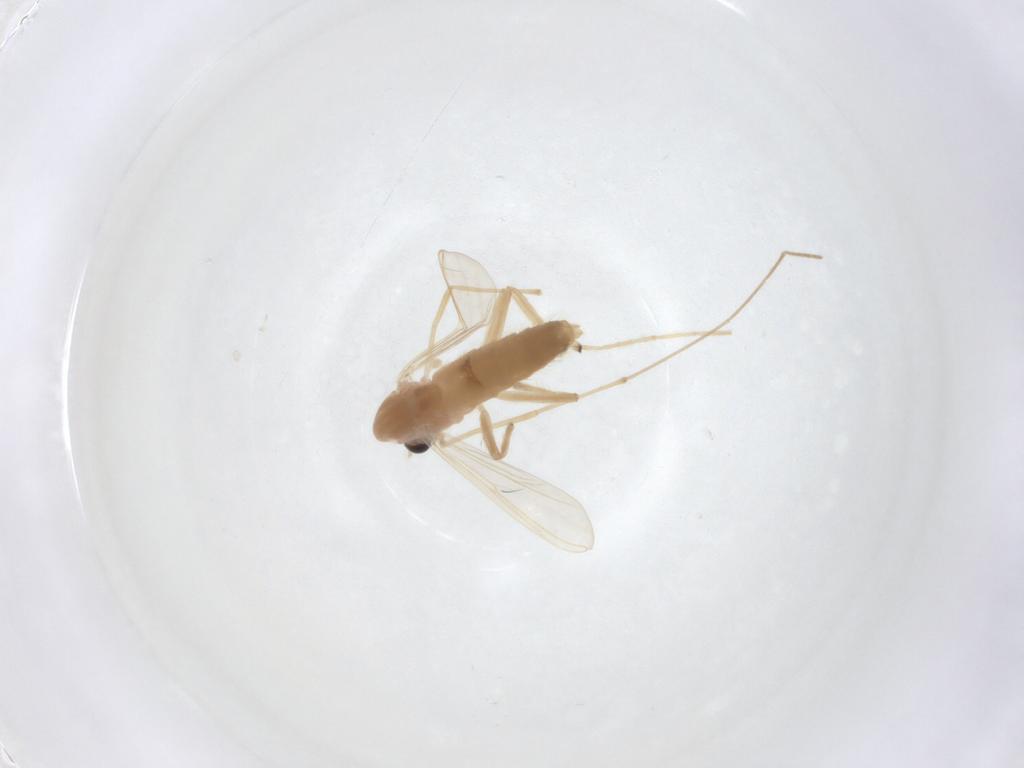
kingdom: Animalia
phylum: Arthropoda
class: Insecta
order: Diptera
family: Chironomidae
